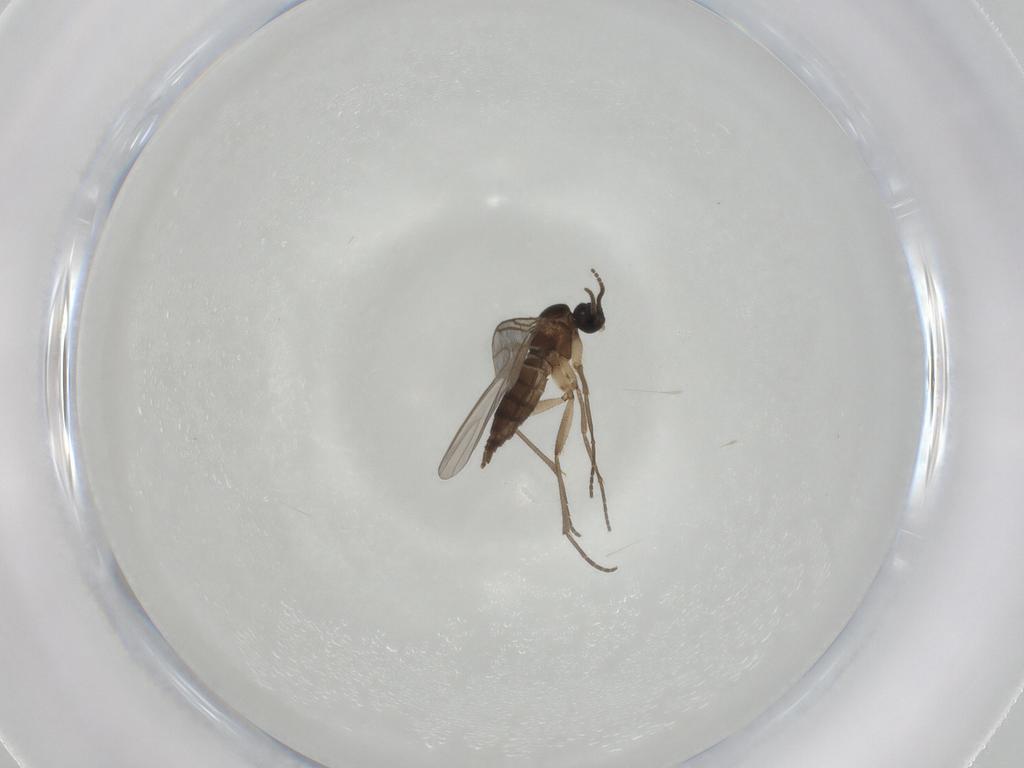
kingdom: Animalia
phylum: Arthropoda
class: Insecta
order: Diptera
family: Sciaridae
